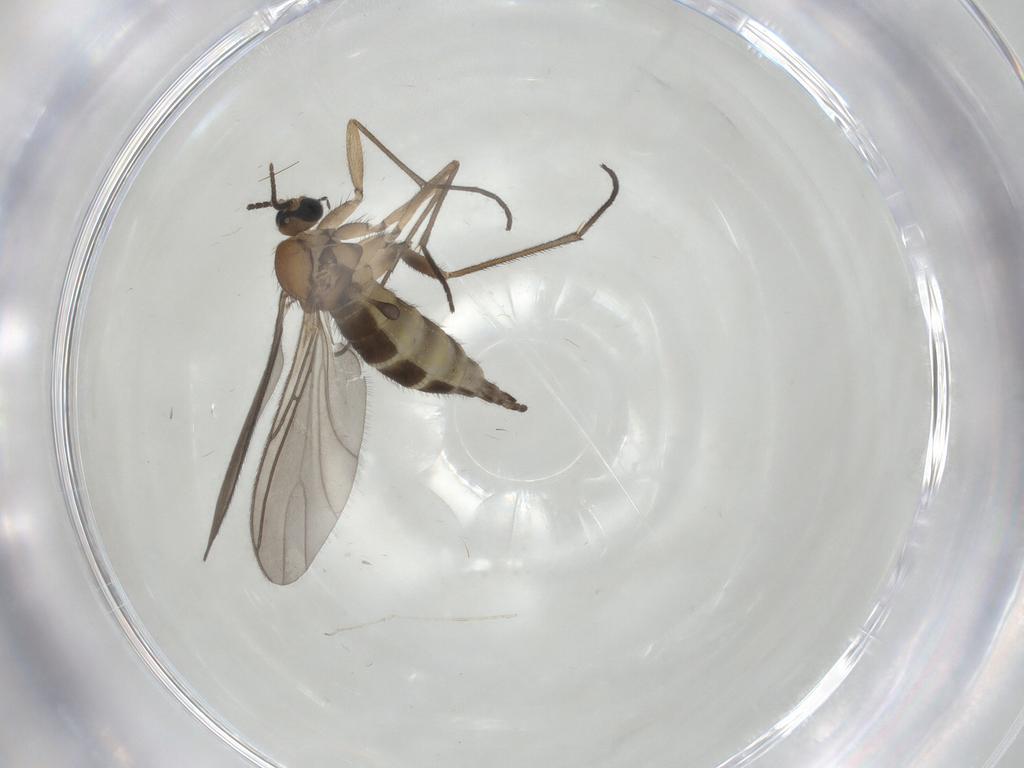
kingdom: Animalia
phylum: Arthropoda
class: Insecta
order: Diptera
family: Sciaridae
